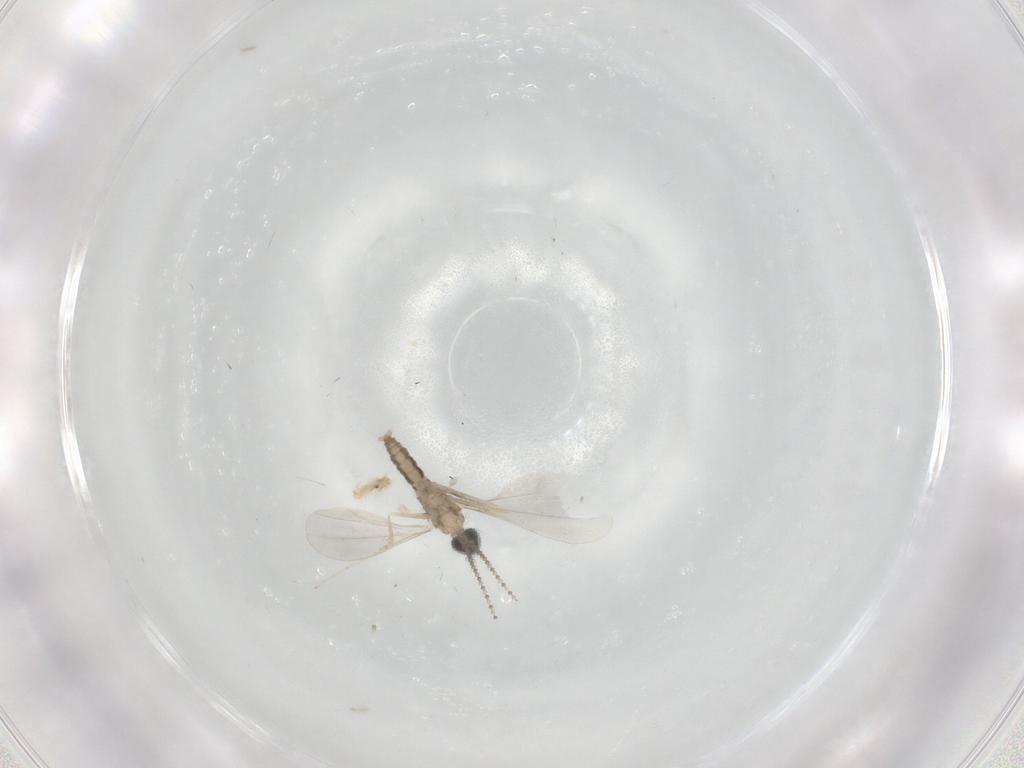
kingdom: Animalia
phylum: Arthropoda
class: Insecta
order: Diptera
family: Cecidomyiidae
